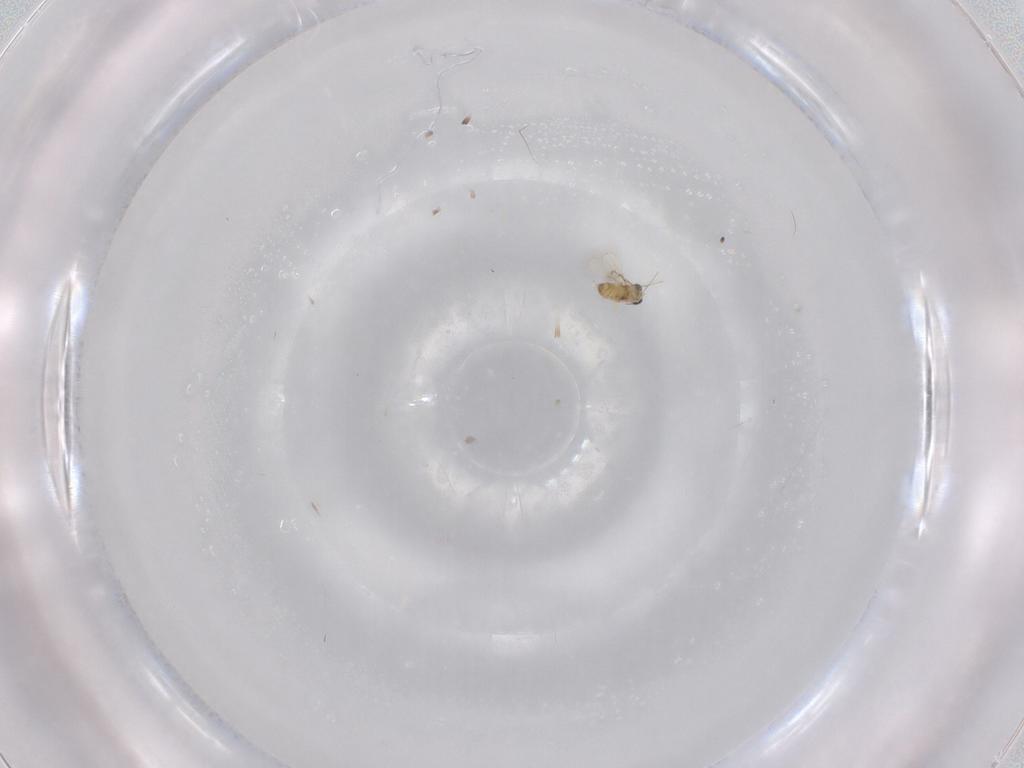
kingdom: Animalia
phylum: Arthropoda
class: Insecta
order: Hymenoptera
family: Trichogrammatidae
